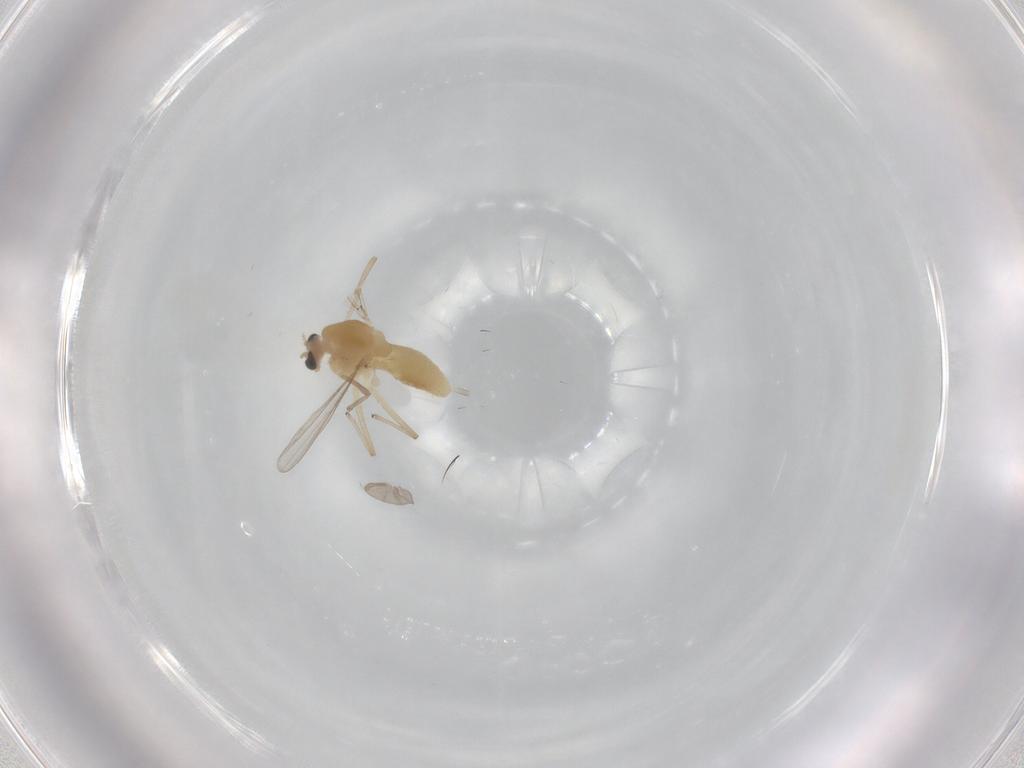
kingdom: Animalia
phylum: Arthropoda
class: Insecta
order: Diptera
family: Chironomidae
